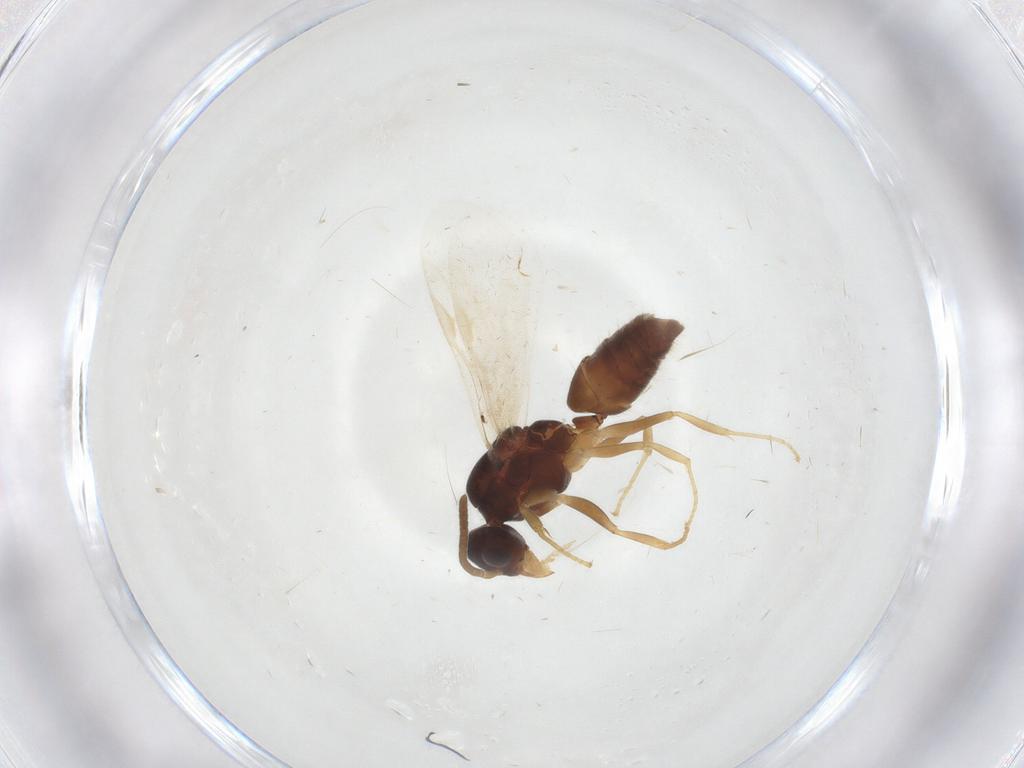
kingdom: Animalia
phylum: Arthropoda
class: Insecta
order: Hymenoptera
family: Formicidae
